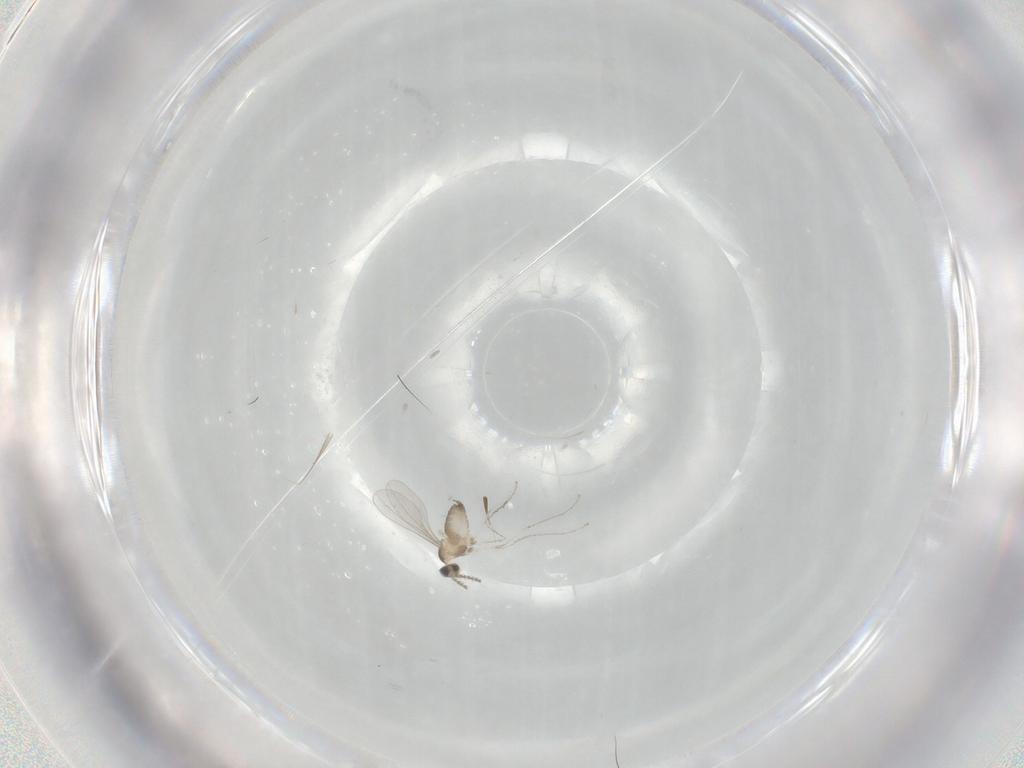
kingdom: Animalia
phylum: Arthropoda
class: Insecta
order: Diptera
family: Cecidomyiidae
